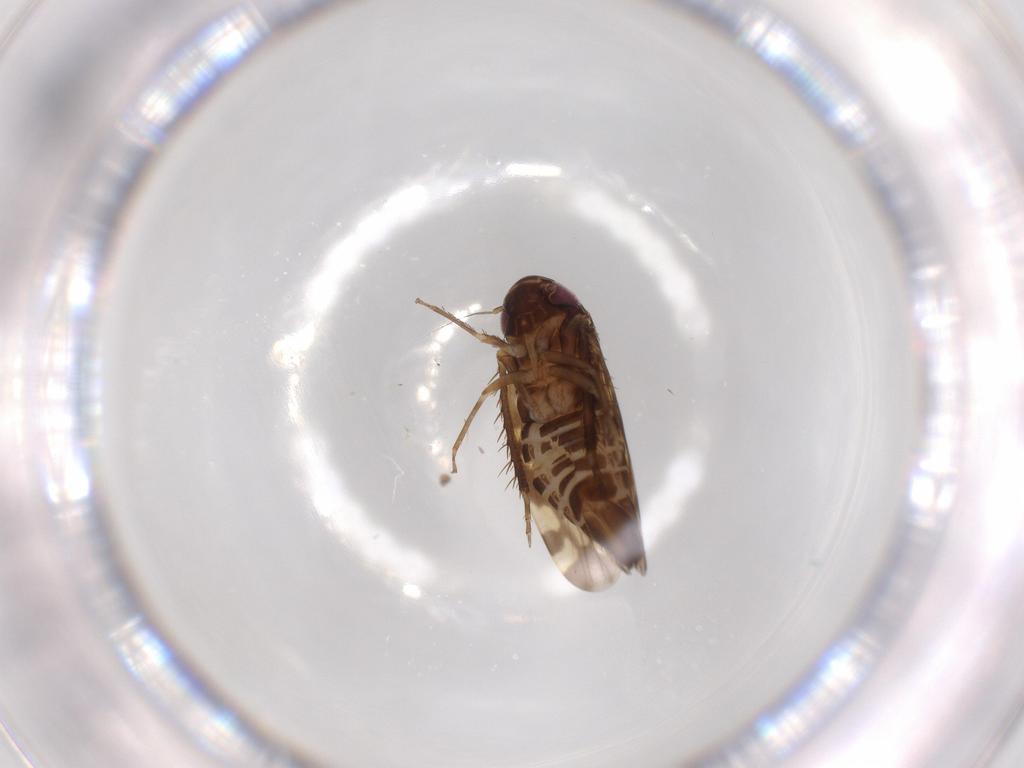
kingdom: Animalia
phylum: Arthropoda
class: Insecta
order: Hemiptera
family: Cicadellidae
